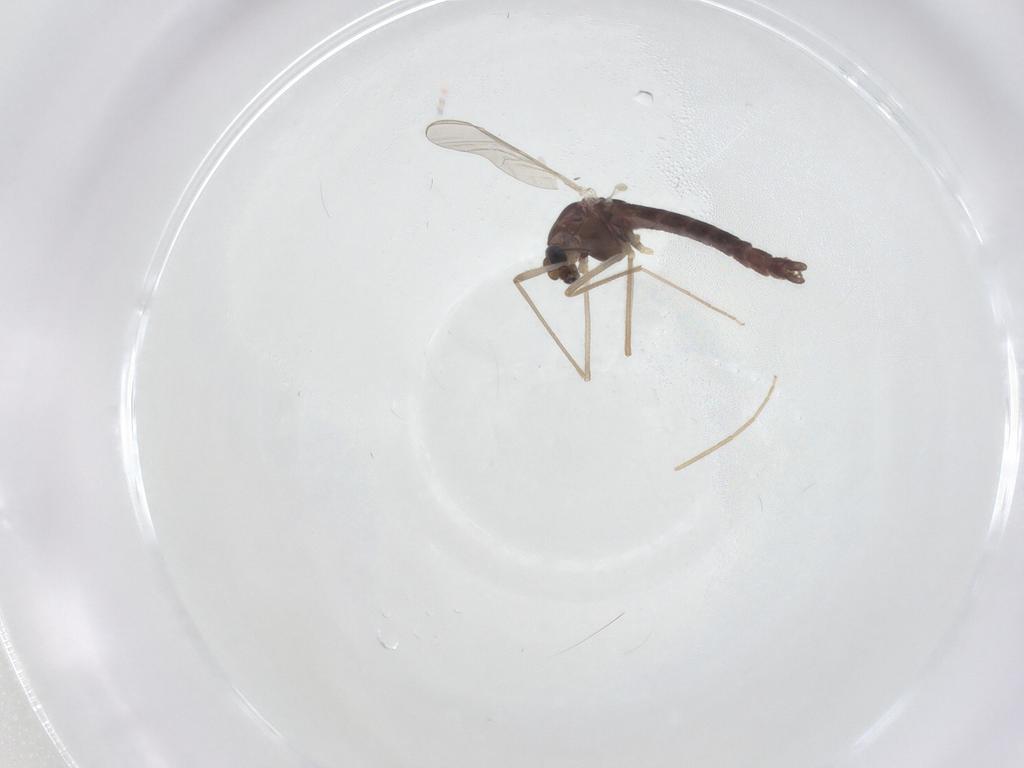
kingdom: Animalia
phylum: Arthropoda
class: Insecta
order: Diptera
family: Chironomidae
